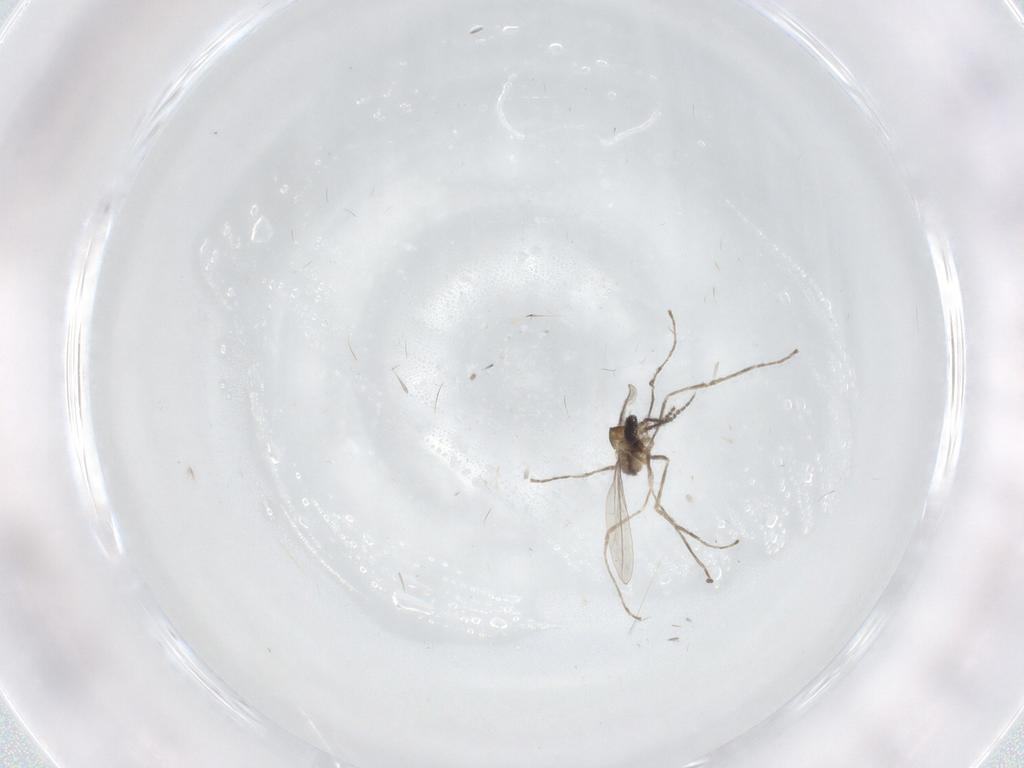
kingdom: Animalia
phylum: Arthropoda
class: Insecta
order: Diptera
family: Cecidomyiidae
